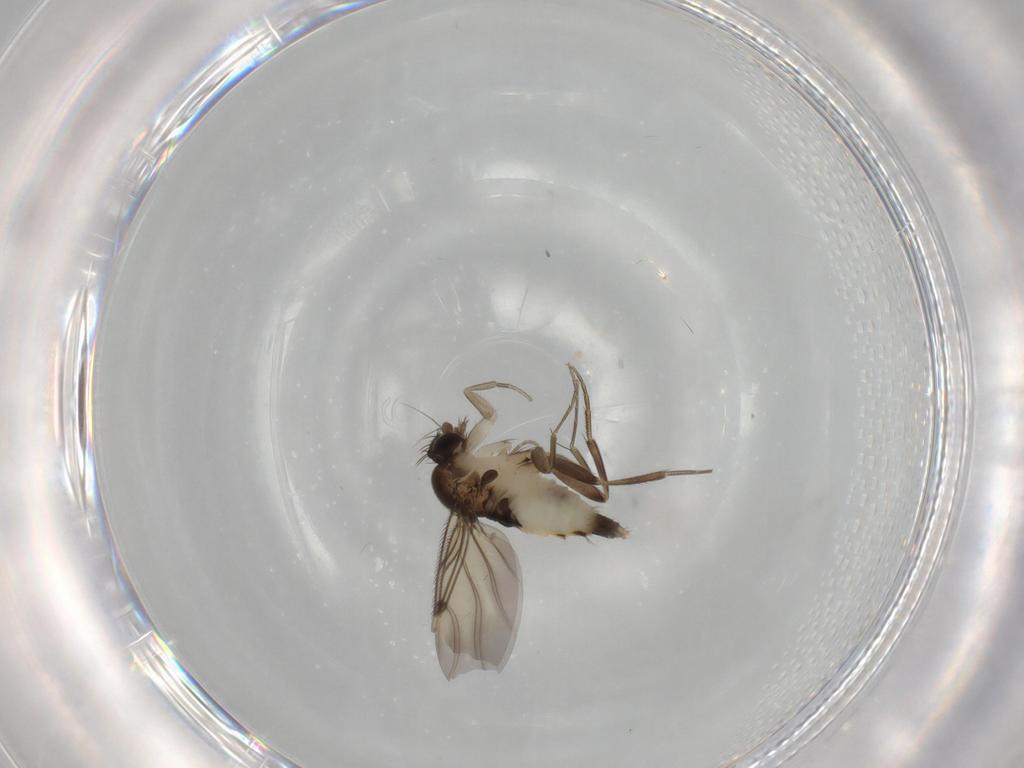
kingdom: Animalia
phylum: Arthropoda
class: Insecta
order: Diptera
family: Phoridae
